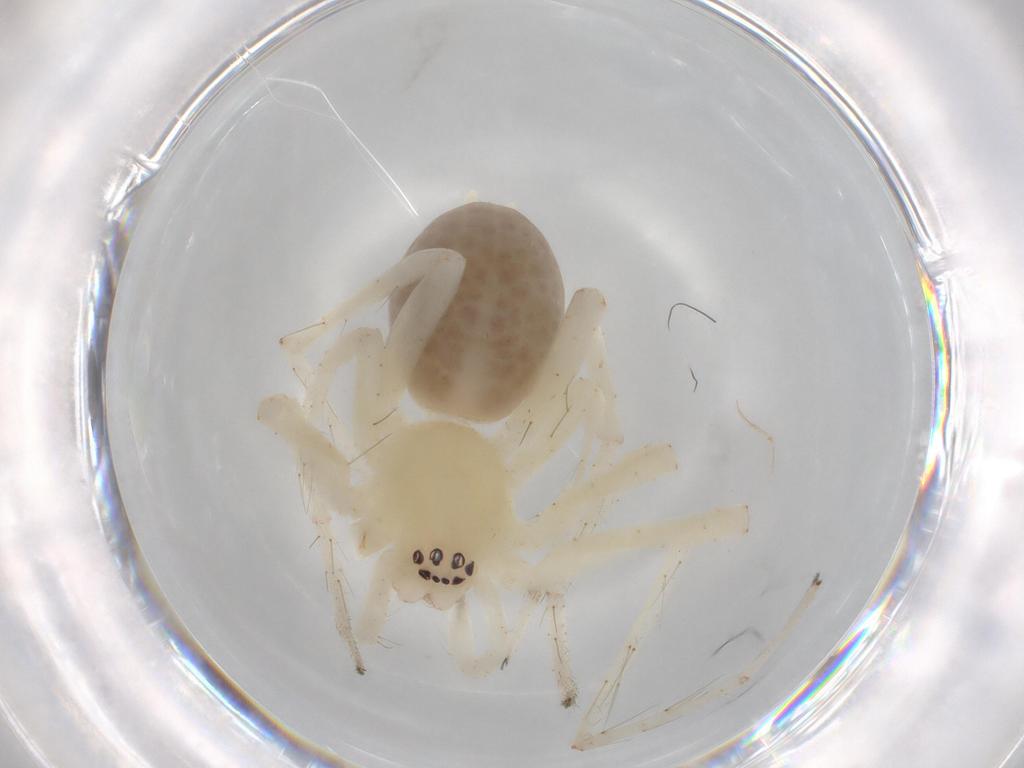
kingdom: Animalia
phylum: Arthropoda
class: Arachnida
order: Araneae
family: Anyphaenidae
